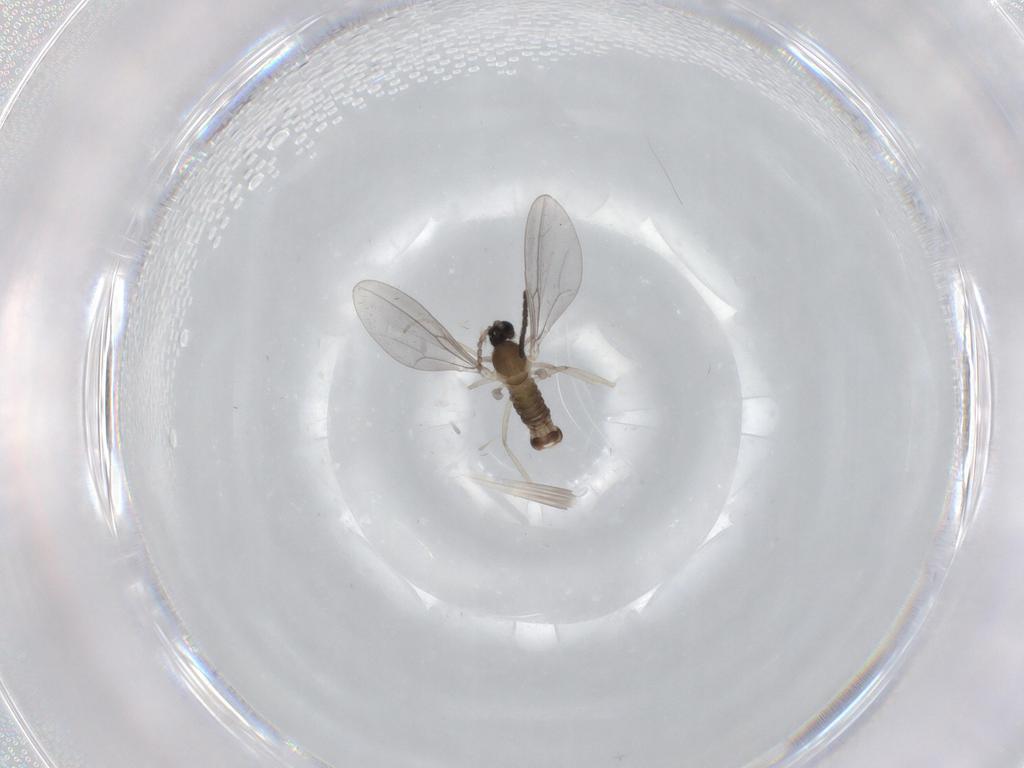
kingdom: Animalia
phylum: Arthropoda
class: Insecta
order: Diptera
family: Cecidomyiidae
